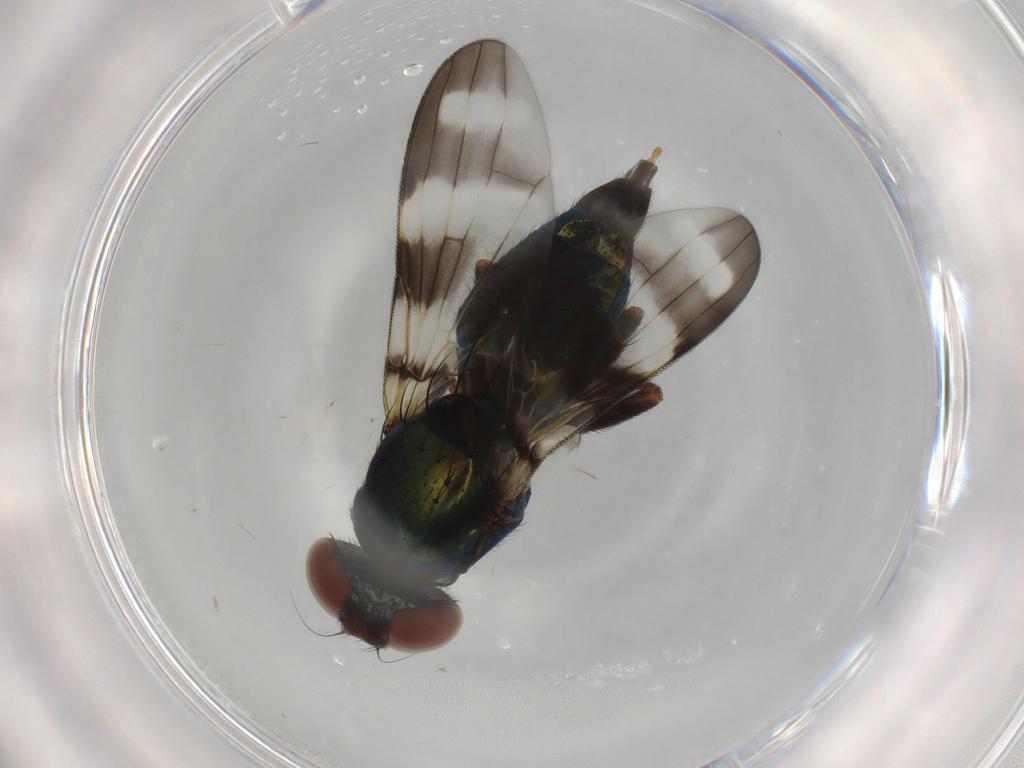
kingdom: Animalia
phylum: Arthropoda
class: Insecta
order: Diptera
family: Ulidiidae
